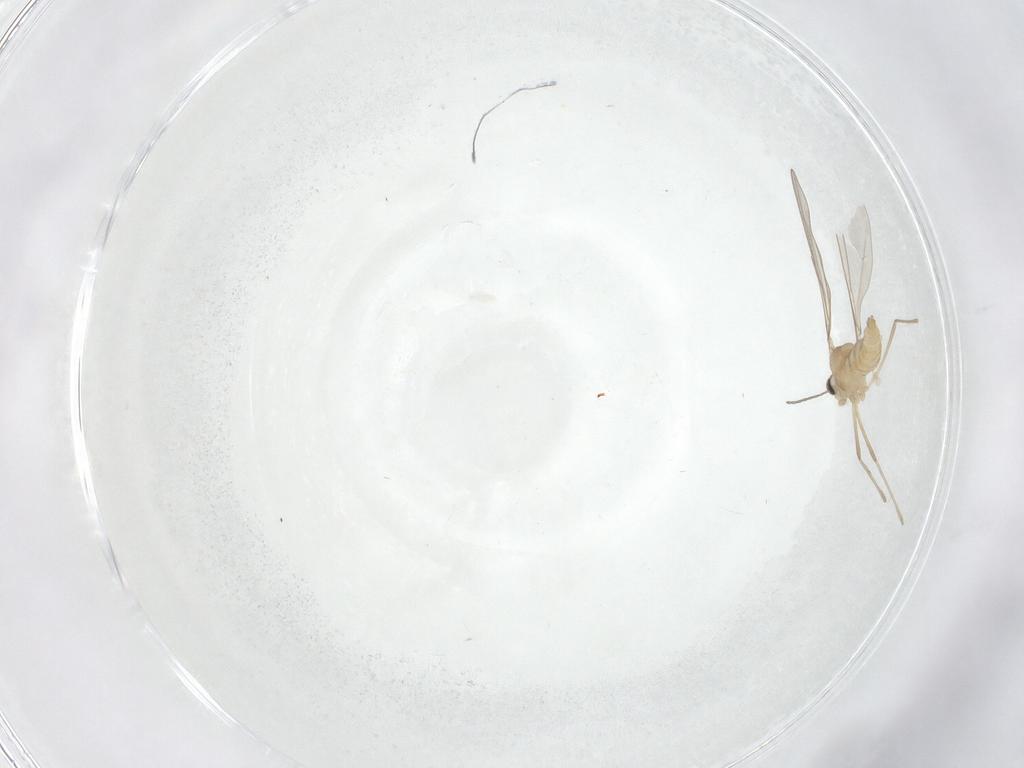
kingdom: Animalia
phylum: Arthropoda
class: Insecta
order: Diptera
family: Cecidomyiidae
